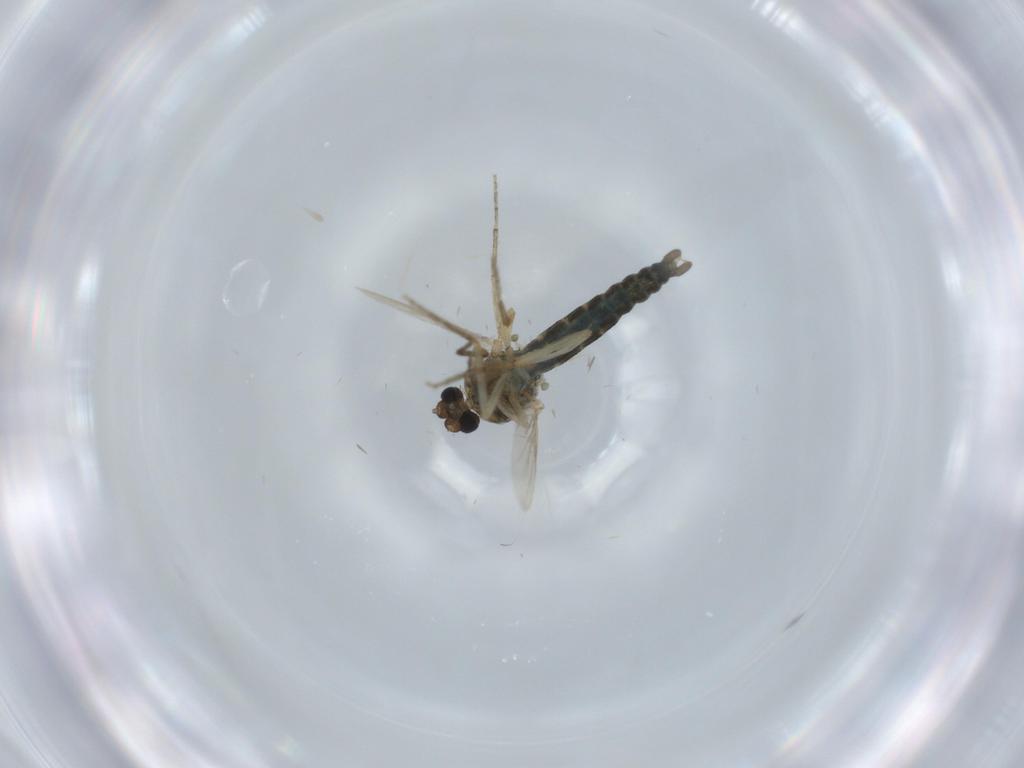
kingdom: Animalia
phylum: Arthropoda
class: Insecta
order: Diptera
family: Ceratopogonidae
